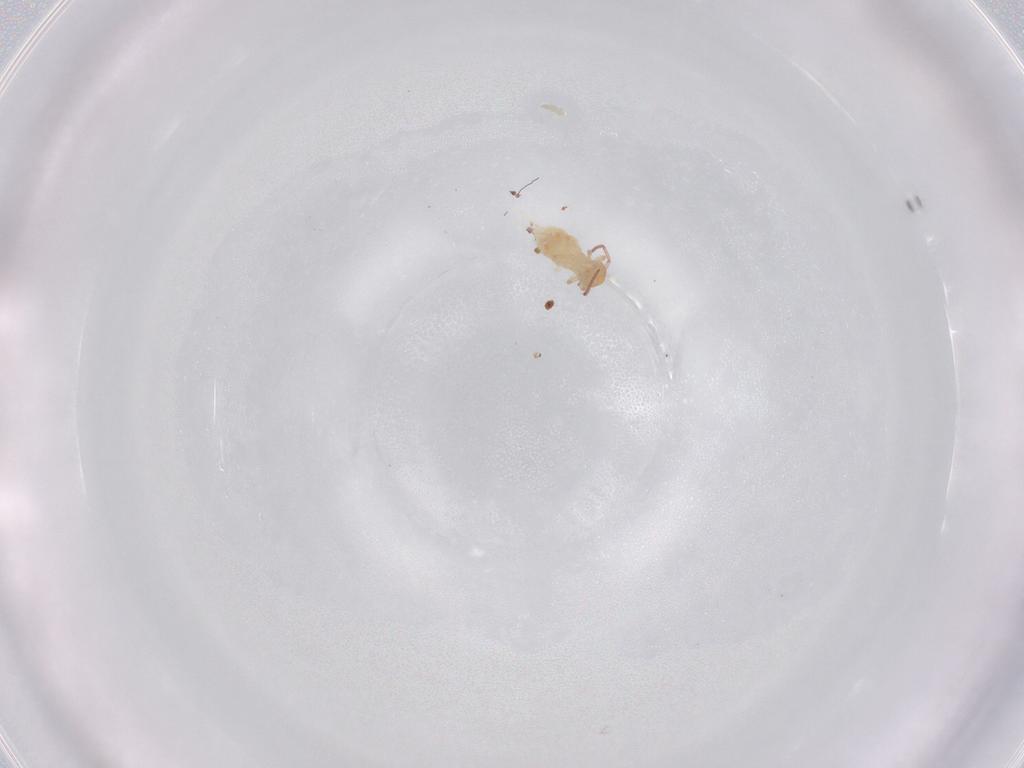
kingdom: Animalia
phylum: Arthropoda
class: Collembola
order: Symphypleona
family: Bourletiellidae
